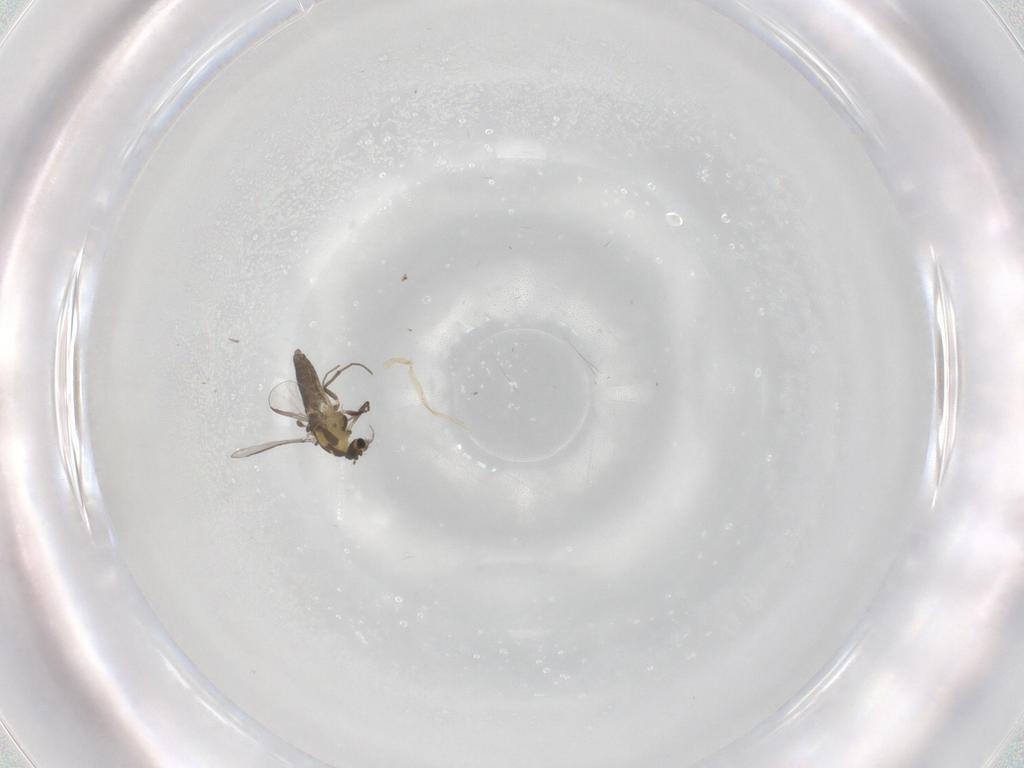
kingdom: Animalia
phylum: Arthropoda
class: Insecta
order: Diptera
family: Chironomidae
